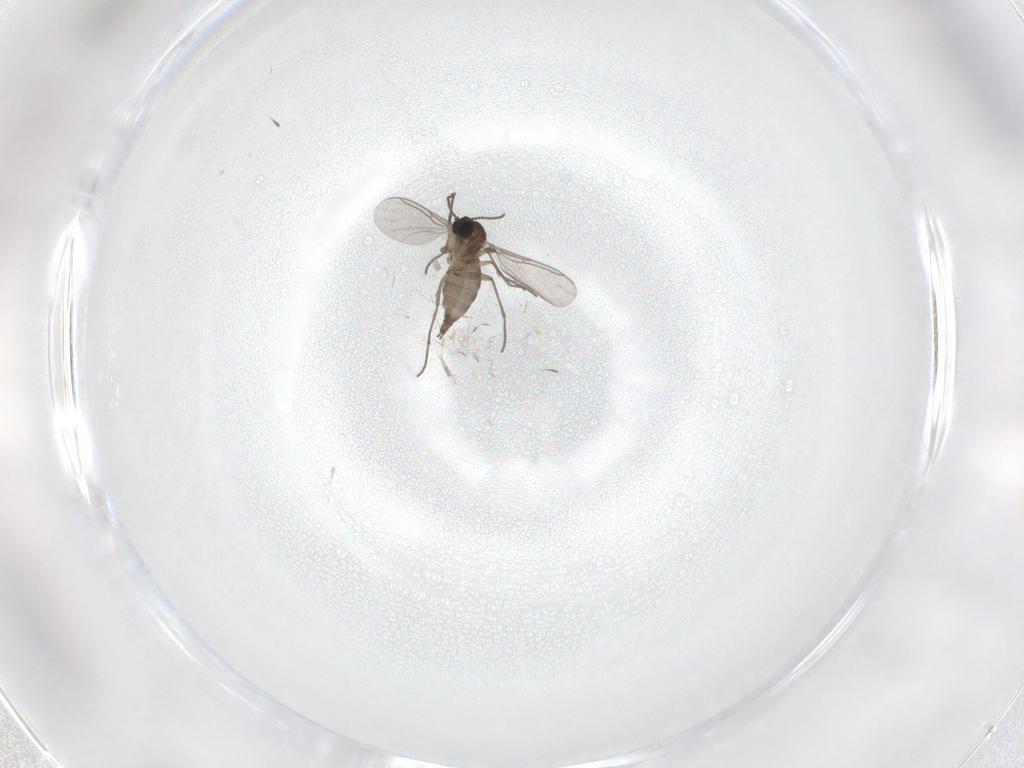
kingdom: Animalia
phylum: Arthropoda
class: Insecta
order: Diptera
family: Sciaridae
